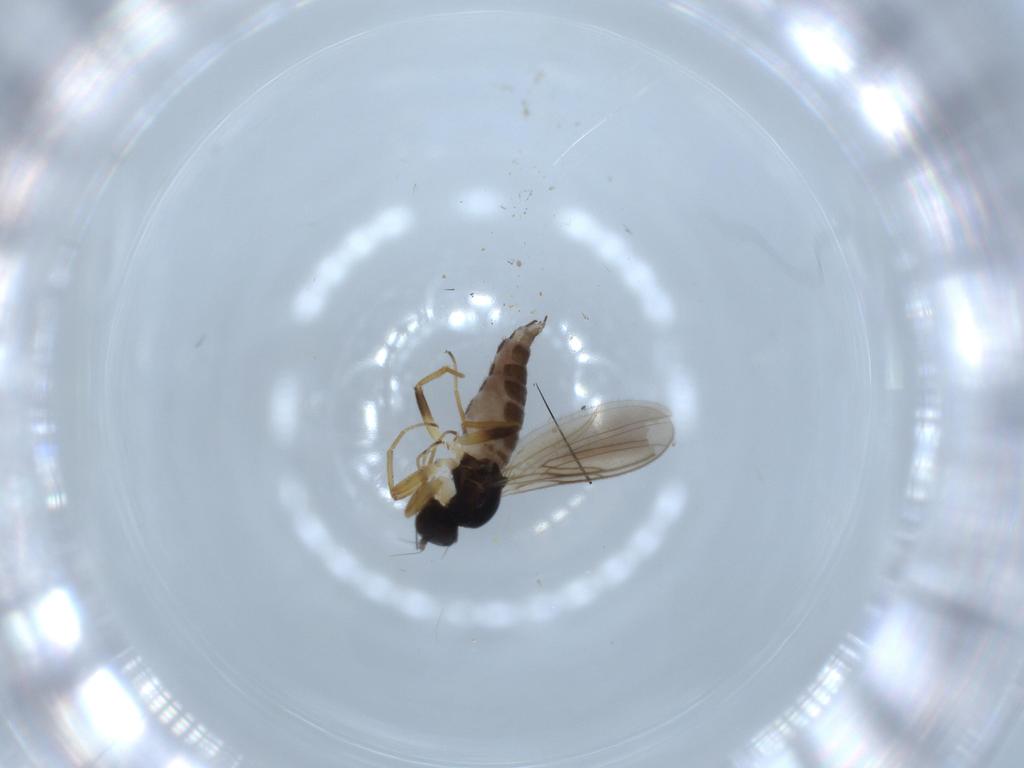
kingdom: Animalia
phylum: Arthropoda
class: Insecta
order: Diptera
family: Hybotidae
